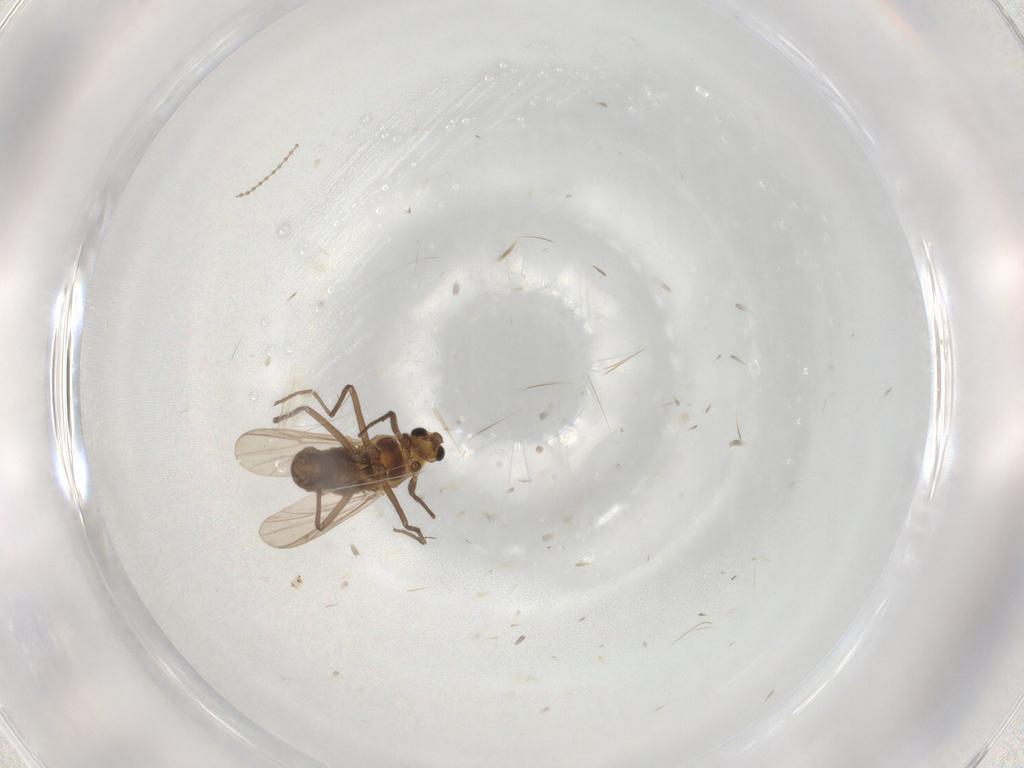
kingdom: Animalia
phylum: Arthropoda
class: Insecta
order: Diptera
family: Chironomidae
